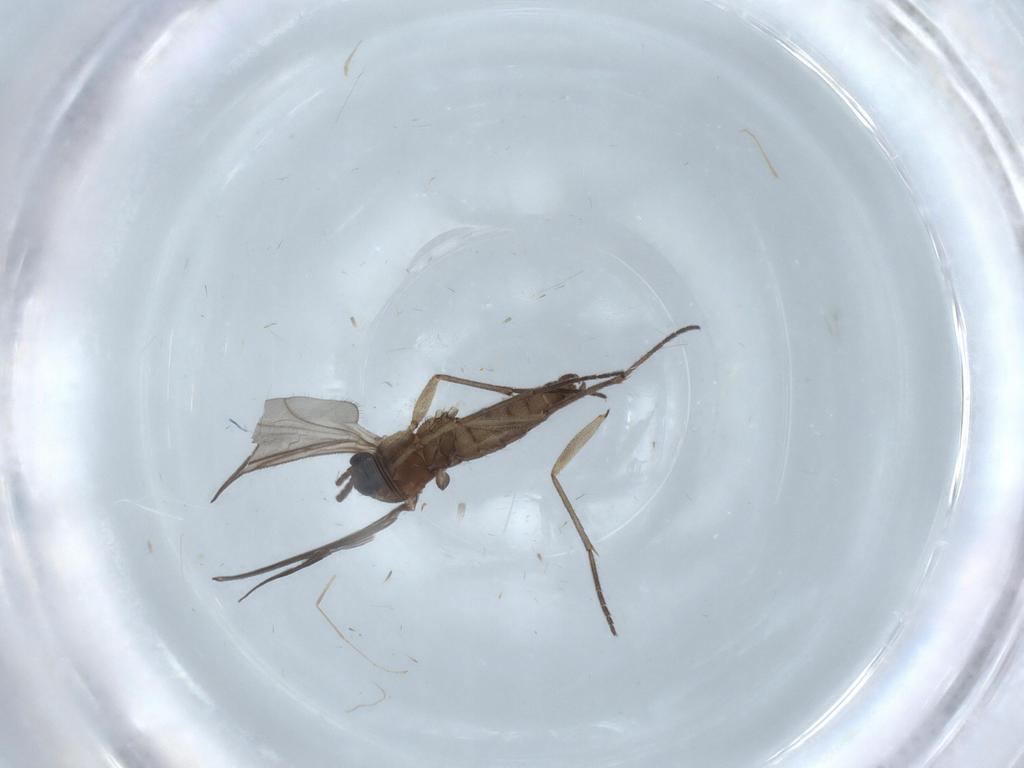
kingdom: Animalia
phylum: Arthropoda
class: Insecta
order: Diptera
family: Sciaridae
